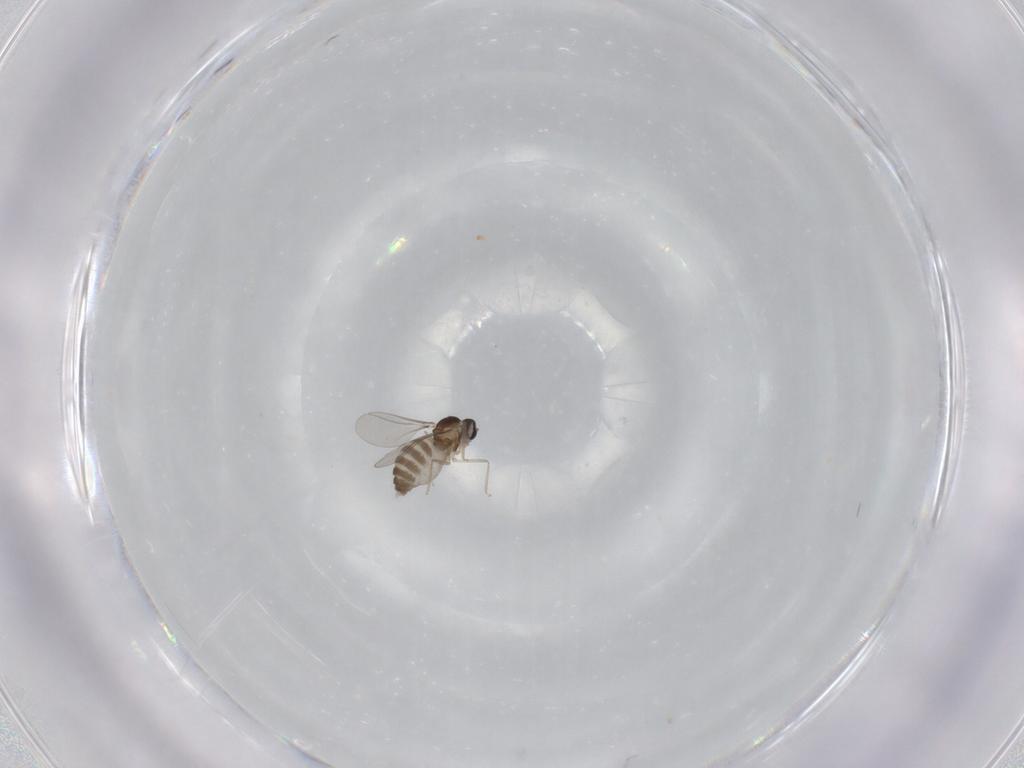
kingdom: Animalia
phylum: Arthropoda
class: Insecta
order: Diptera
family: Cecidomyiidae
